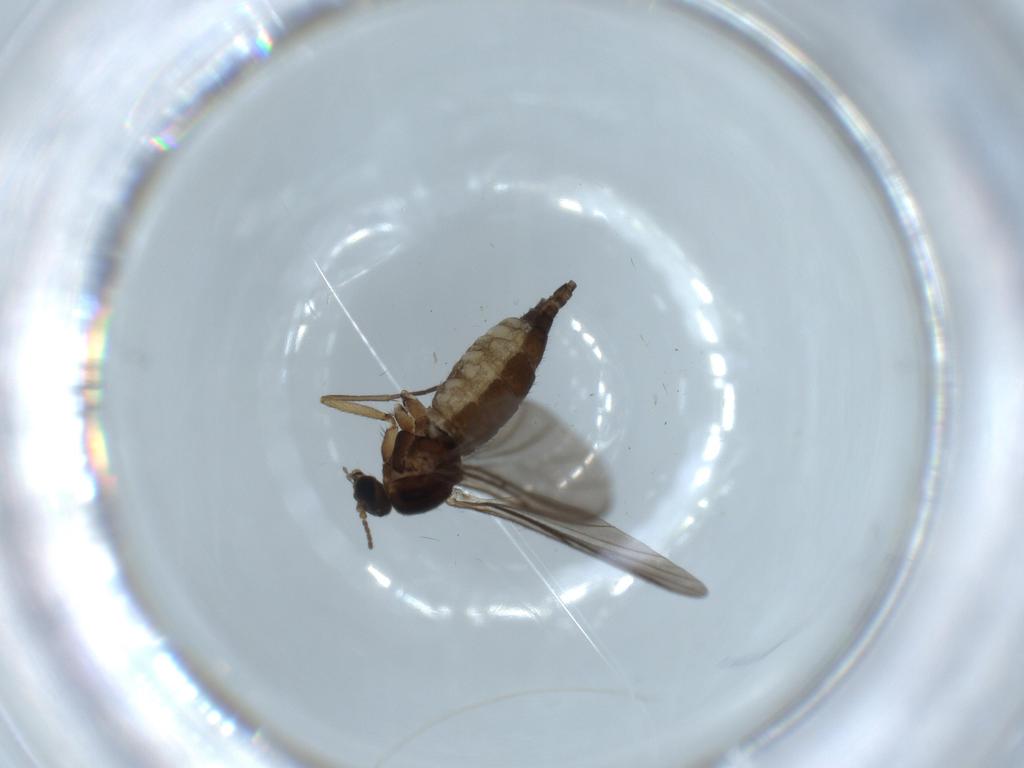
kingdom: Animalia
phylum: Arthropoda
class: Insecta
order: Diptera
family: Sciaridae
